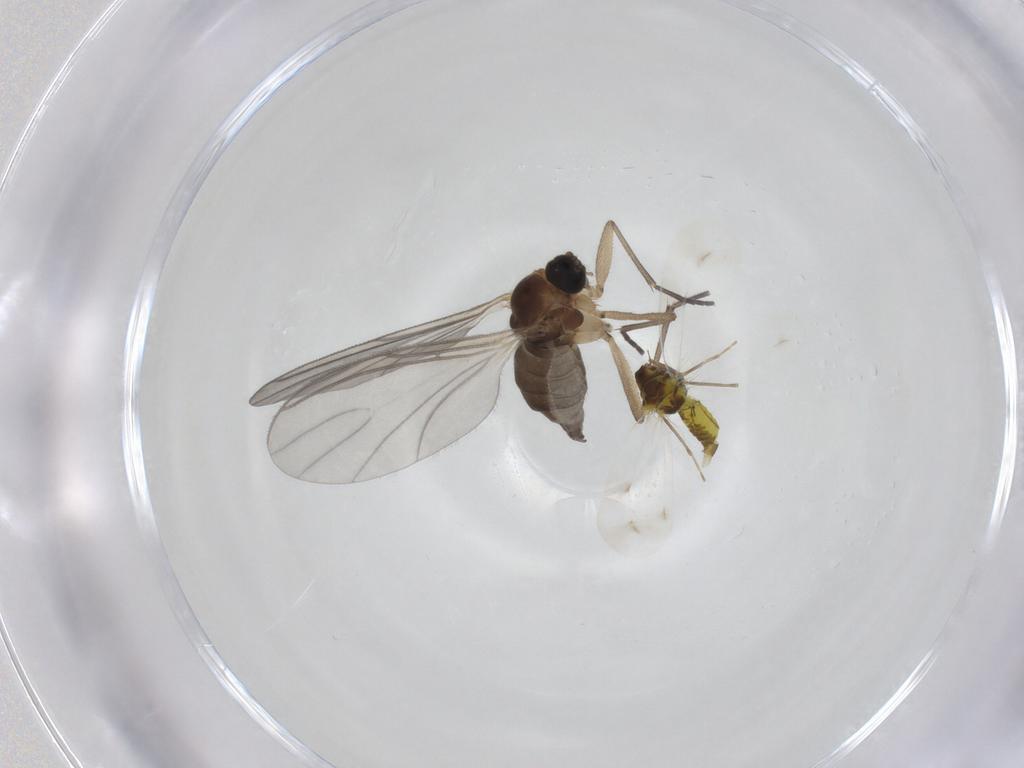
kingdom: Animalia
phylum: Arthropoda
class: Insecta
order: Diptera
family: Sciaridae
